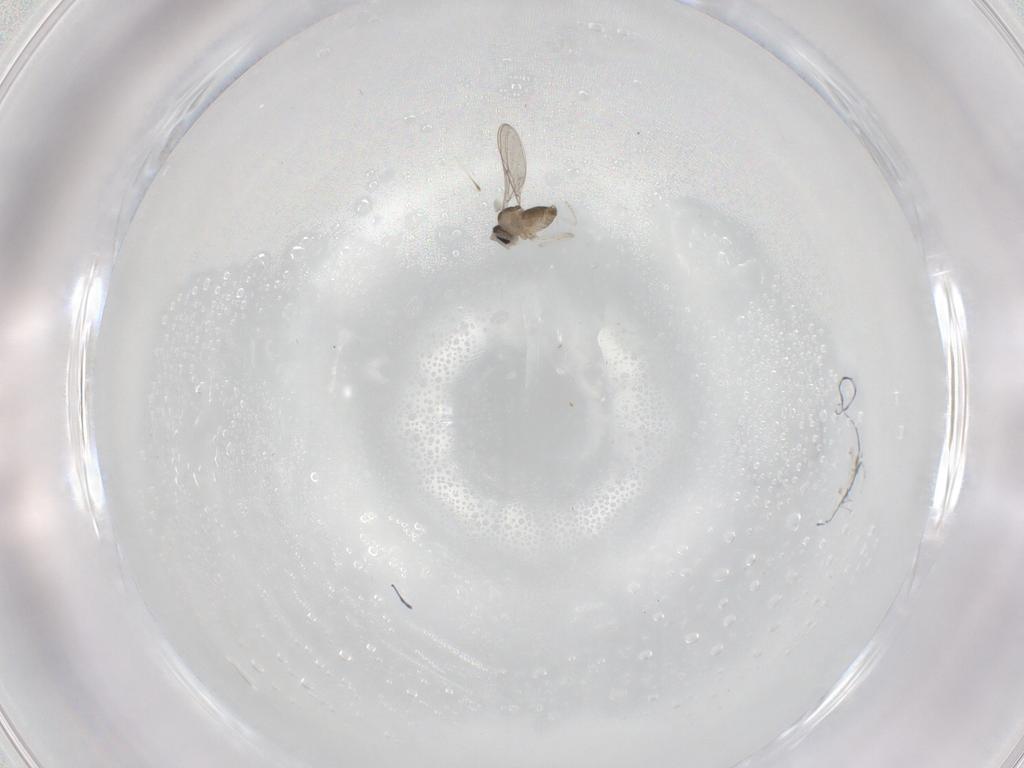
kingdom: Animalia
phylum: Arthropoda
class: Insecta
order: Diptera
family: Cecidomyiidae
